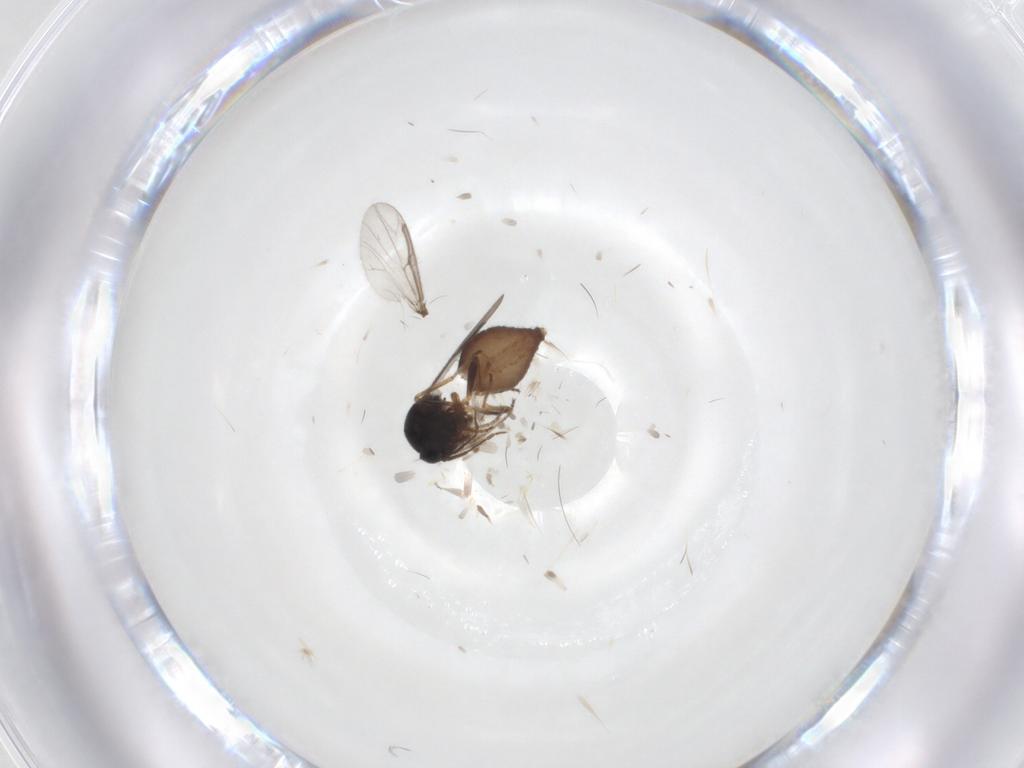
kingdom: Animalia
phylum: Arthropoda
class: Insecta
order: Diptera
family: Ceratopogonidae
